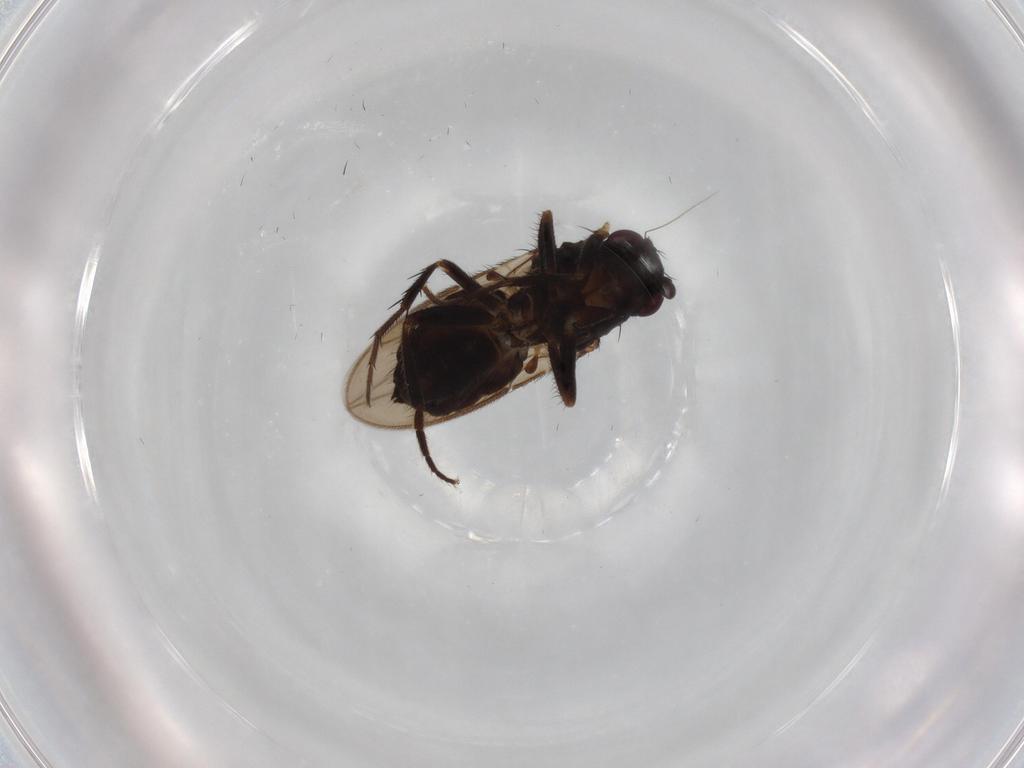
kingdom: Animalia
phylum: Arthropoda
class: Insecta
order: Diptera
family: Sphaeroceridae
